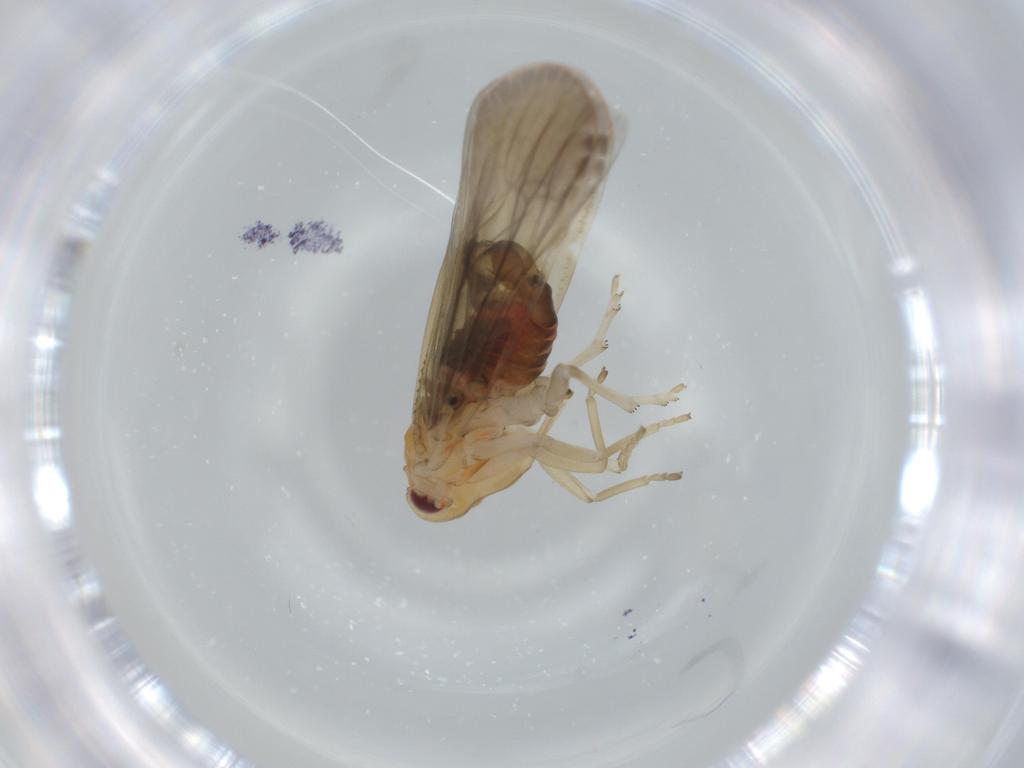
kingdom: Animalia
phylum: Arthropoda
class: Insecta
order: Hemiptera
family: Derbidae
